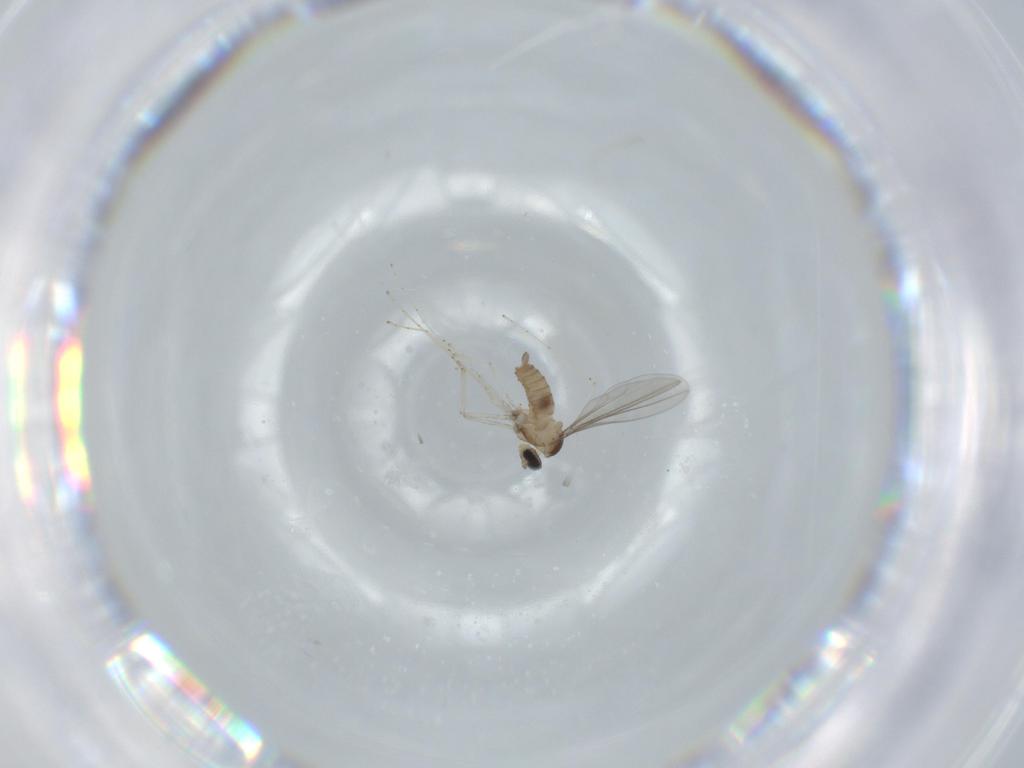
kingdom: Animalia
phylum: Arthropoda
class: Insecta
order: Diptera
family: Cecidomyiidae
